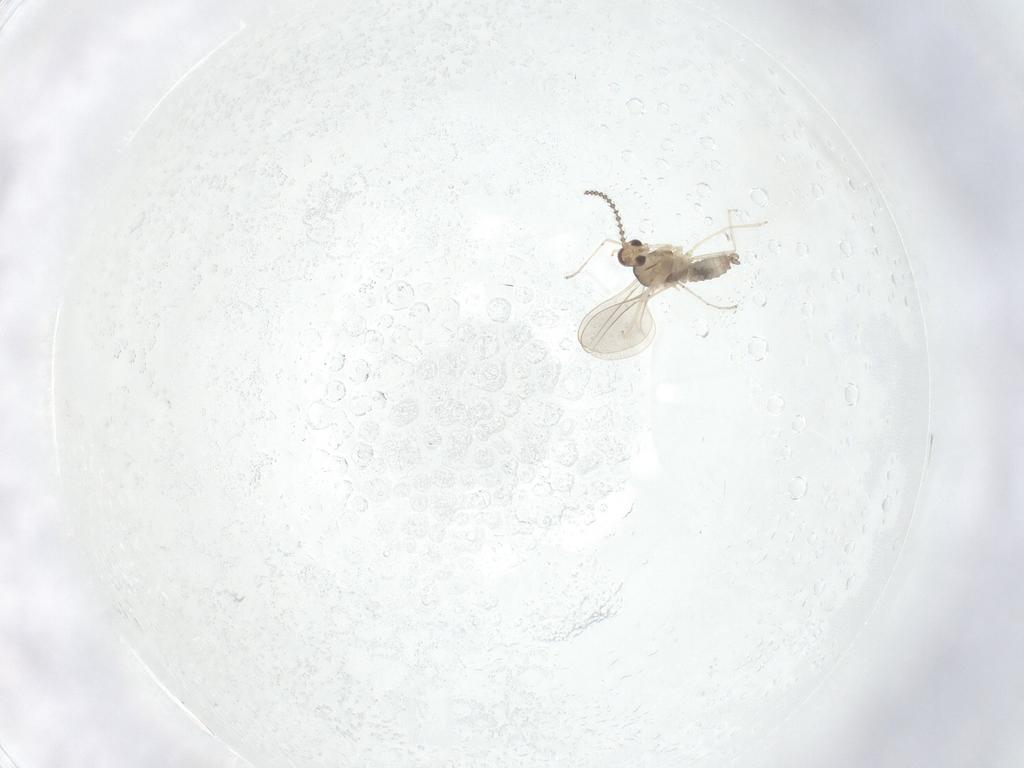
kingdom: Animalia
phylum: Arthropoda
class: Insecta
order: Diptera
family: Cecidomyiidae
